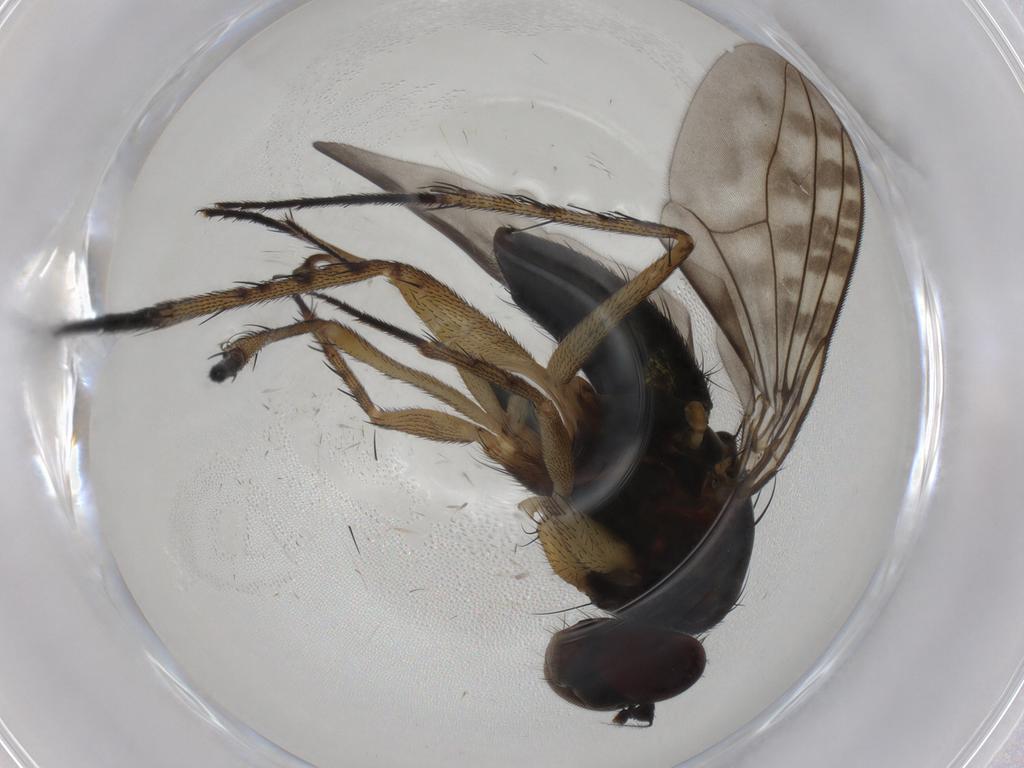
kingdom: Animalia
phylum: Arthropoda
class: Insecta
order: Diptera
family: Dolichopodidae
